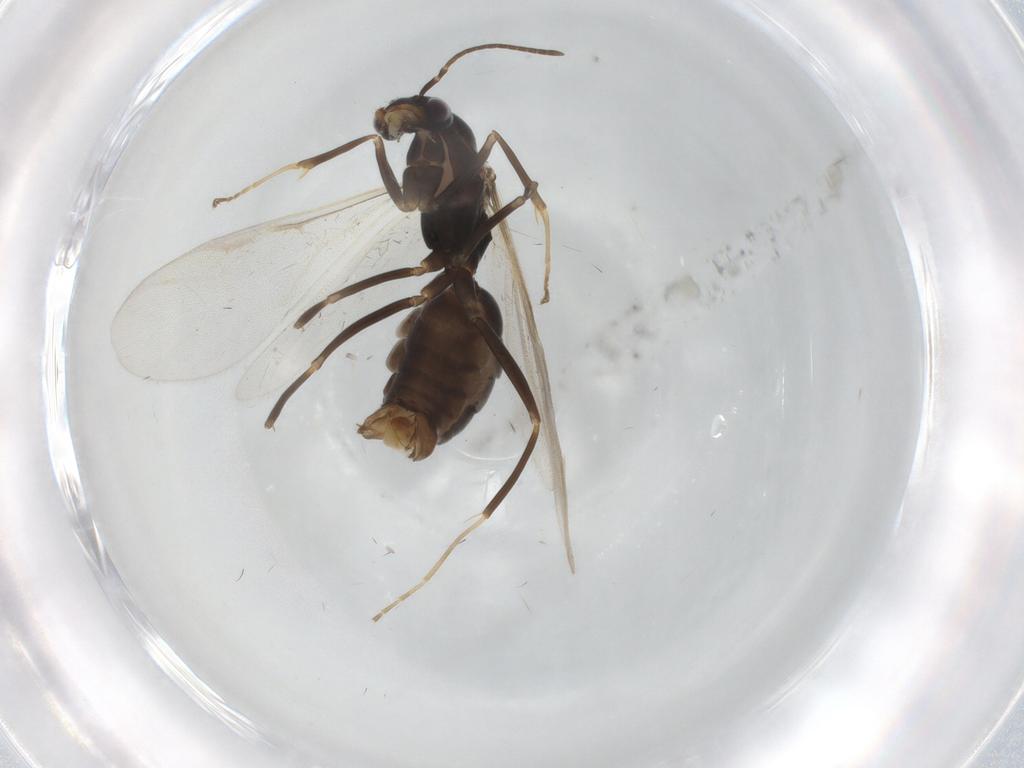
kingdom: Animalia
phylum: Arthropoda
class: Insecta
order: Hymenoptera
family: Formicidae
